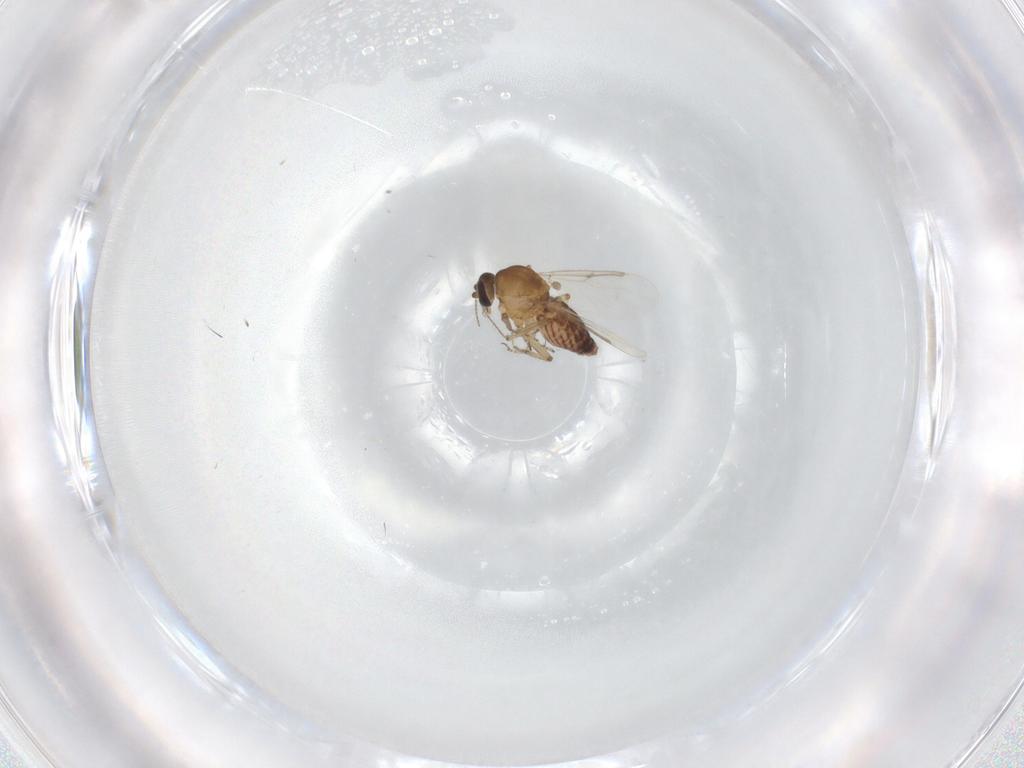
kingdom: Animalia
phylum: Arthropoda
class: Insecta
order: Diptera
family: Ceratopogonidae
